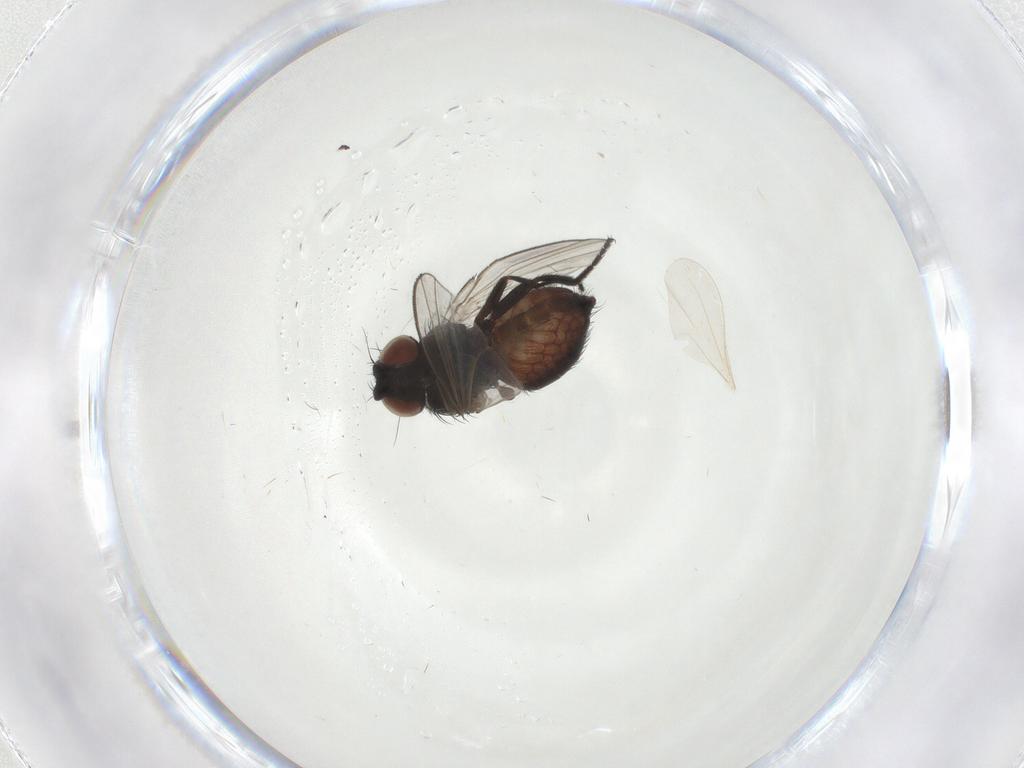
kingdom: Animalia
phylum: Arthropoda
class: Insecta
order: Diptera
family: Milichiidae
